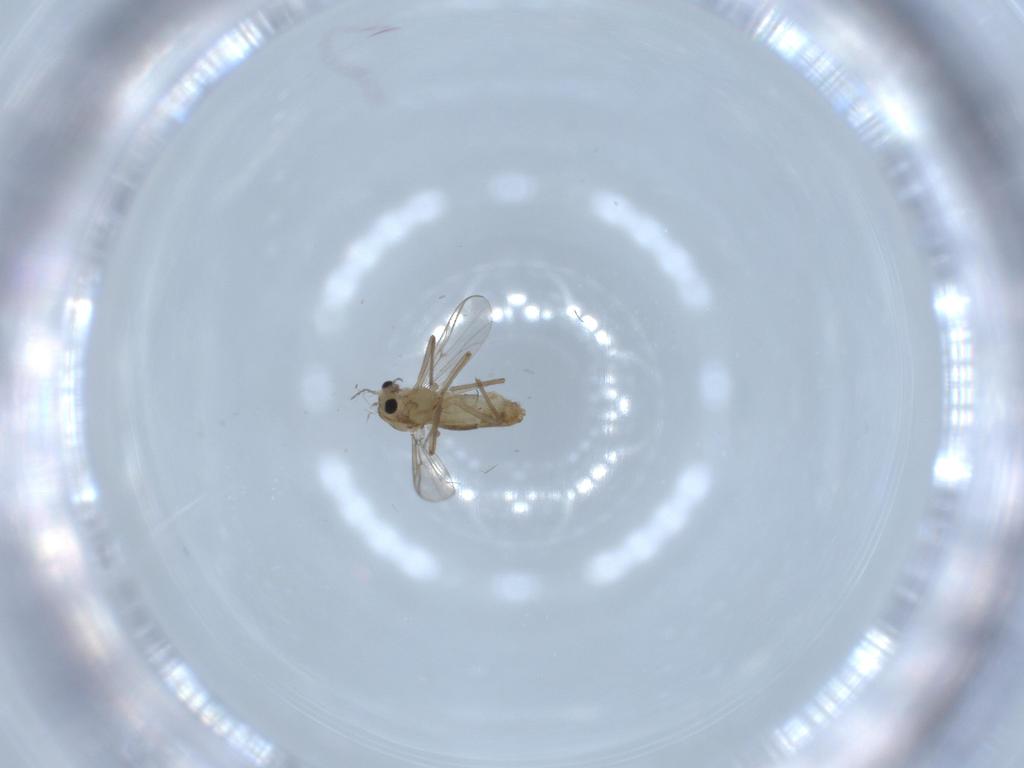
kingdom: Animalia
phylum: Arthropoda
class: Insecta
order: Diptera
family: Chironomidae
